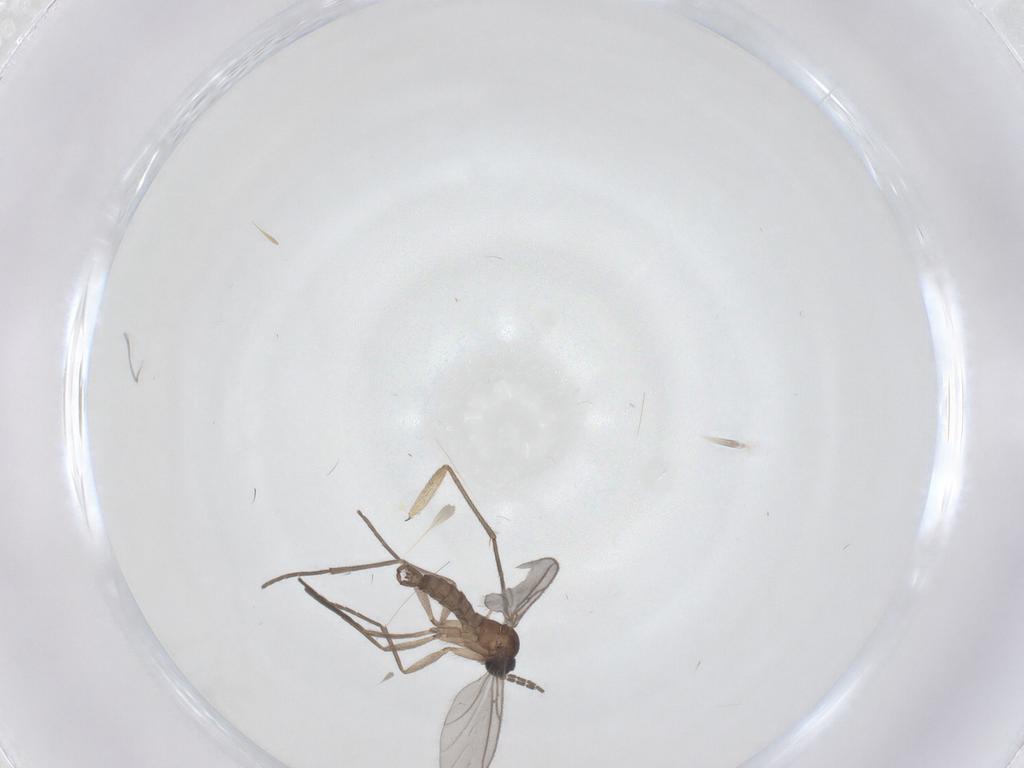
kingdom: Animalia
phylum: Arthropoda
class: Insecta
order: Diptera
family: Sciaridae
